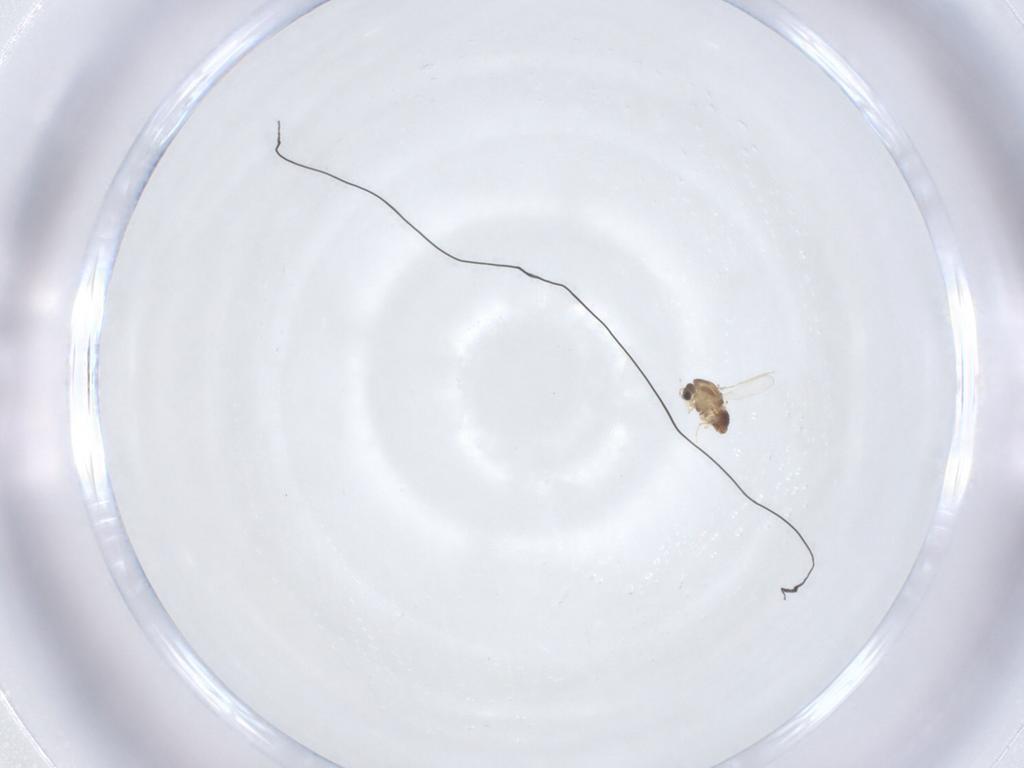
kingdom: Animalia
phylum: Arthropoda
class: Insecta
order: Diptera
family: Chironomidae
